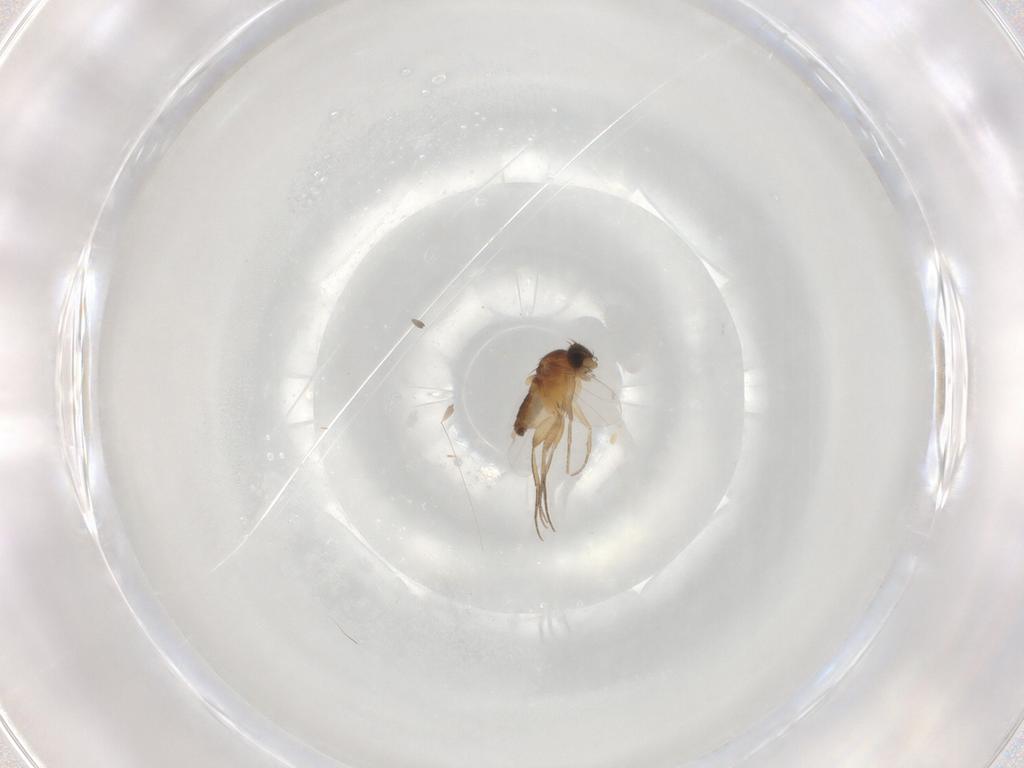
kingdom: Animalia
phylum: Arthropoda
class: Insecta
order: Diptera
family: Phoridae
